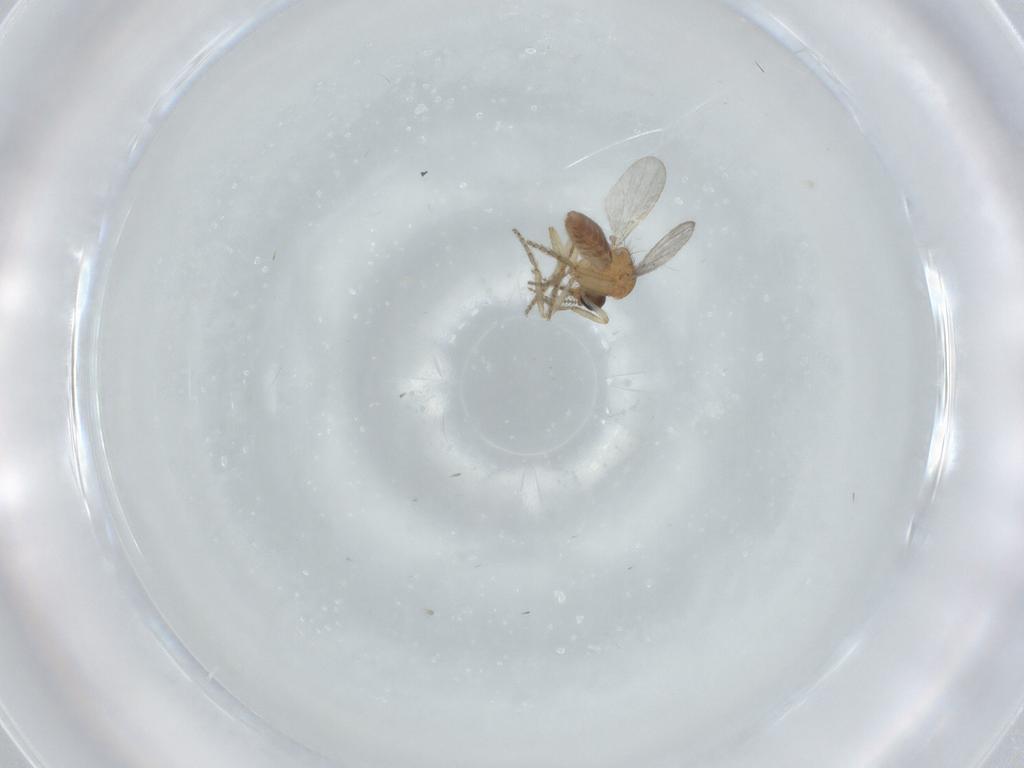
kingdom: Animalia
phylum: Arthropoda
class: Insecta
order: Diptera
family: Ceratopogonidae
